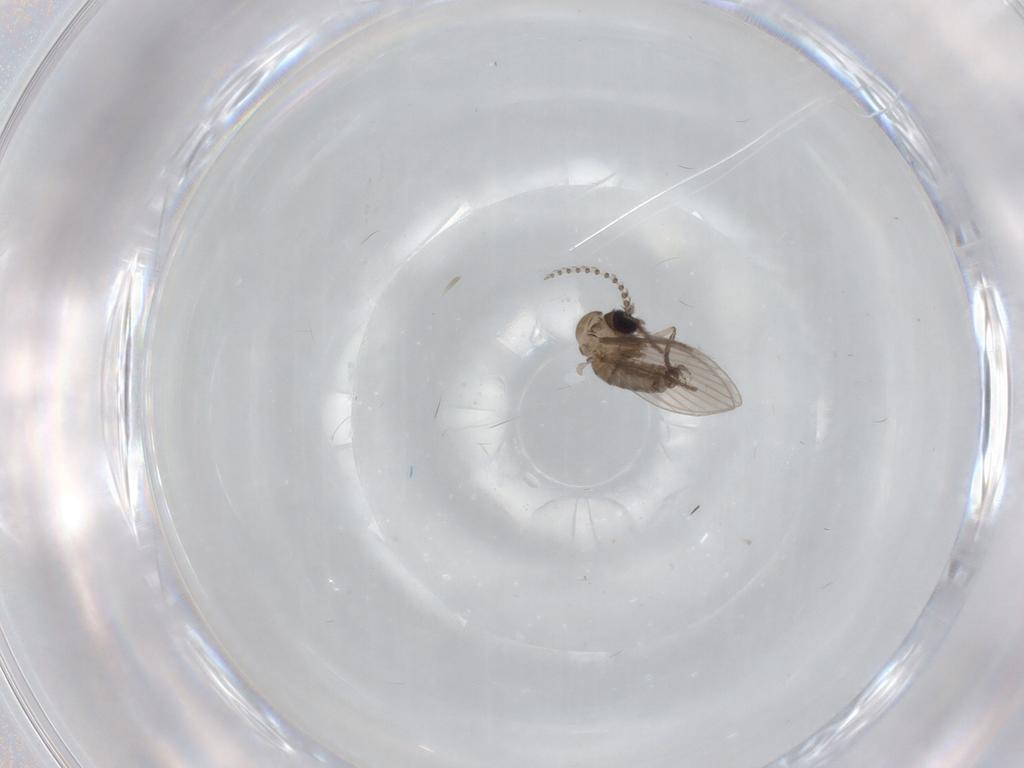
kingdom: Animalia
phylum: Arthropoda
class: Insecta
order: Diptera
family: Psychodidae
